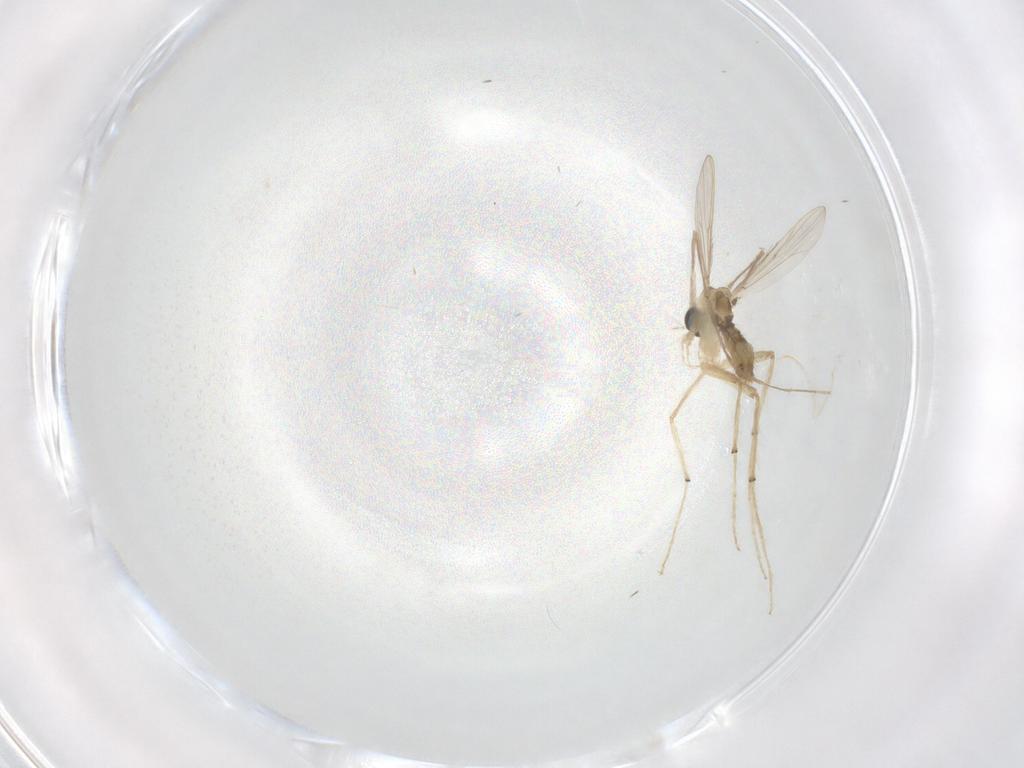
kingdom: Animalia
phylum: Arthropoda
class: Insecta
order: Diptera
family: Chironomidae
